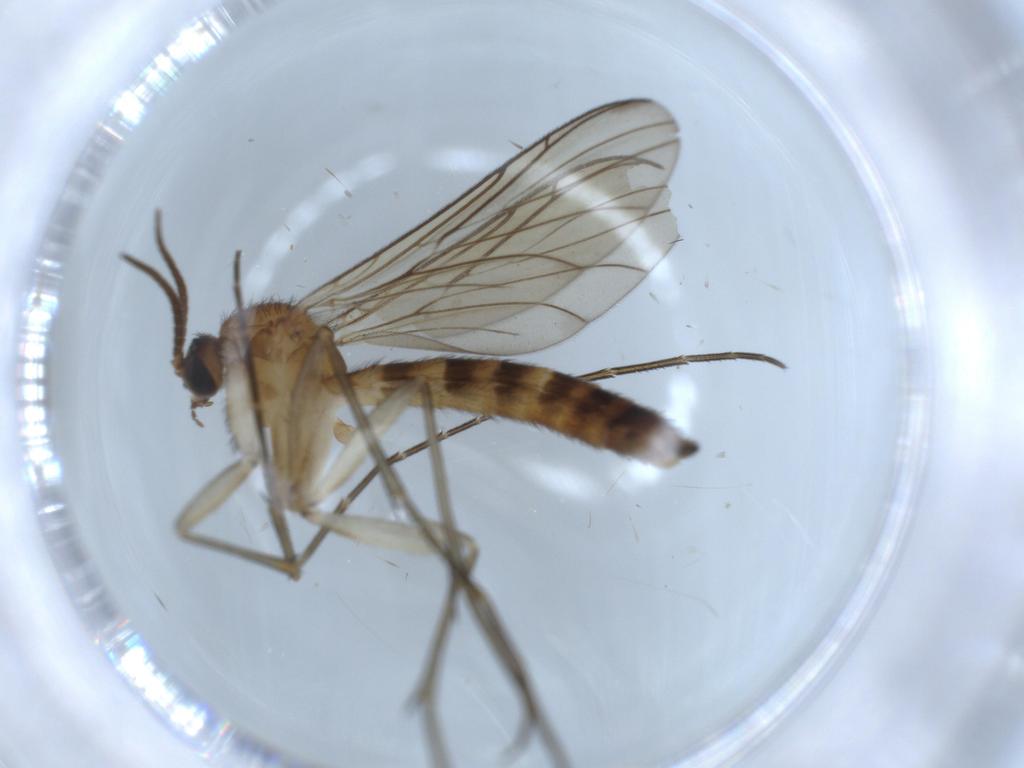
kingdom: Animalia
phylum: Arthropoda
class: Insecta
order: Diptera
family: Keroplatidae
